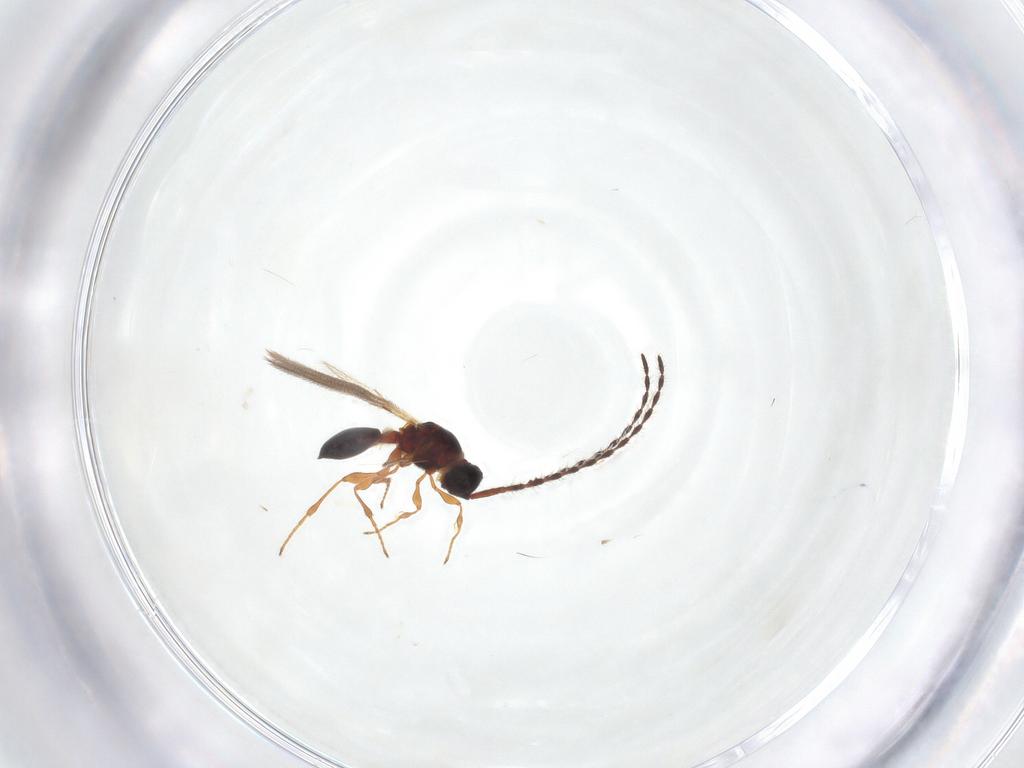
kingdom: Animalia
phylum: Arthropoda
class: Insecta
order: Hymenoptera
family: Diapriidae
